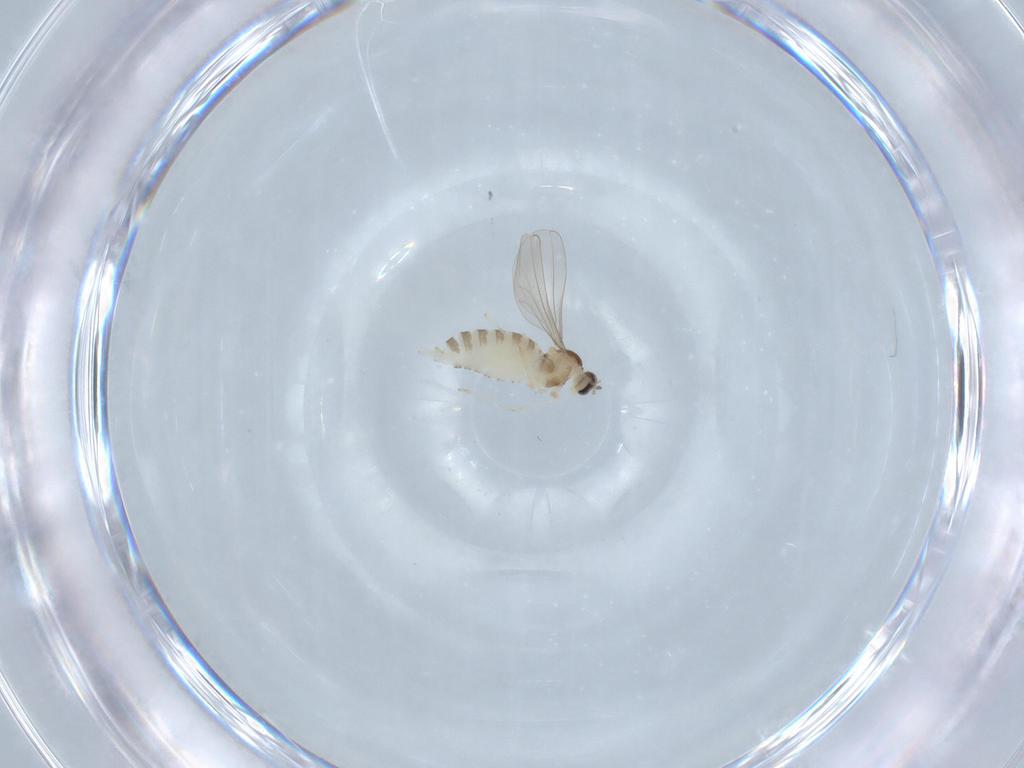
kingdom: Animalia
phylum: Arthropoda
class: Insecta
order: Diptera
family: Cecidomyiidae
